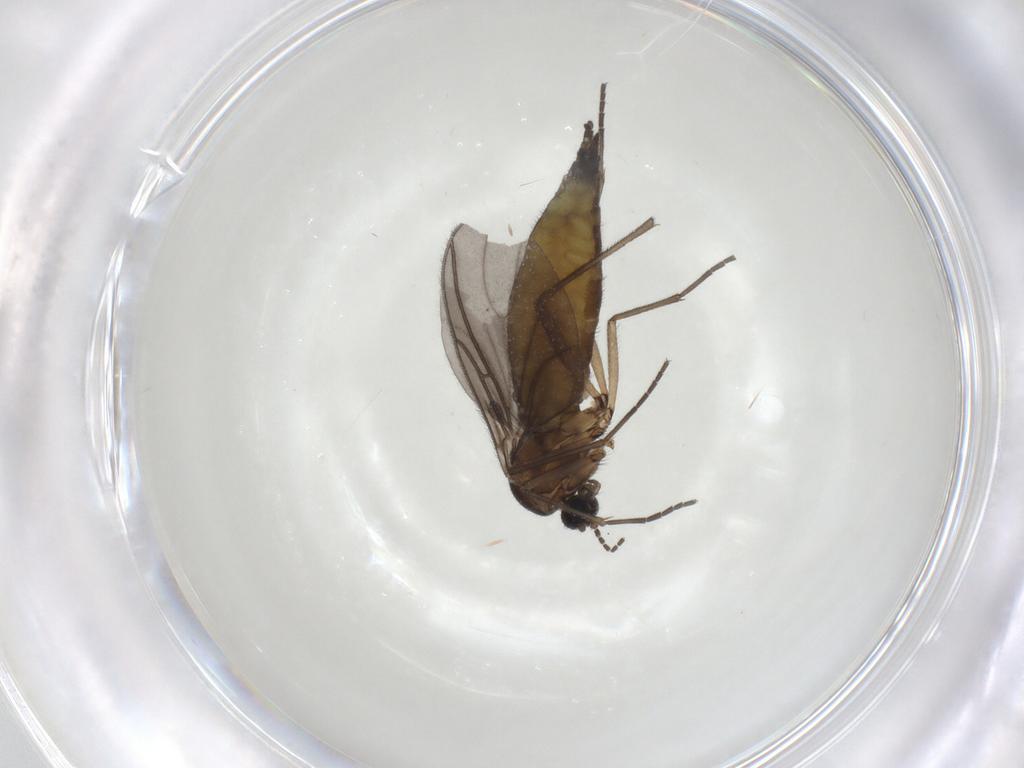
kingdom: Animalia
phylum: Arthropoda
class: Insecta
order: Diptera
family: Sciaridae
